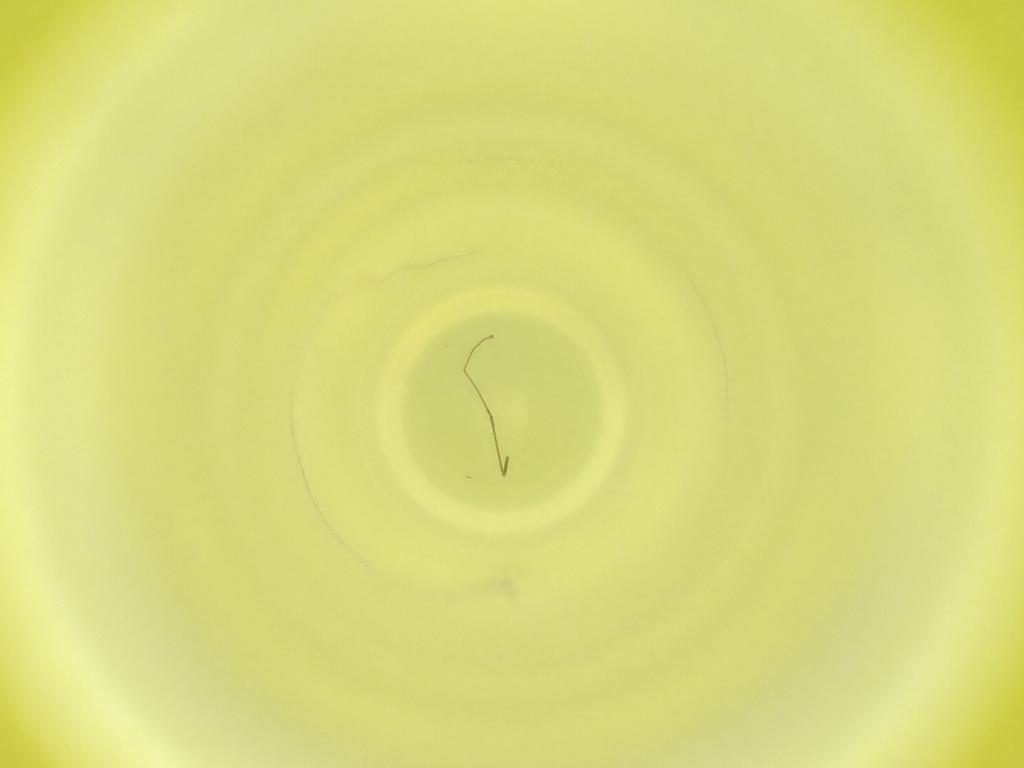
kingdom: Animalia
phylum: Arthropoda
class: Insecta
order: Diptera
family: Cecidomyiidae
